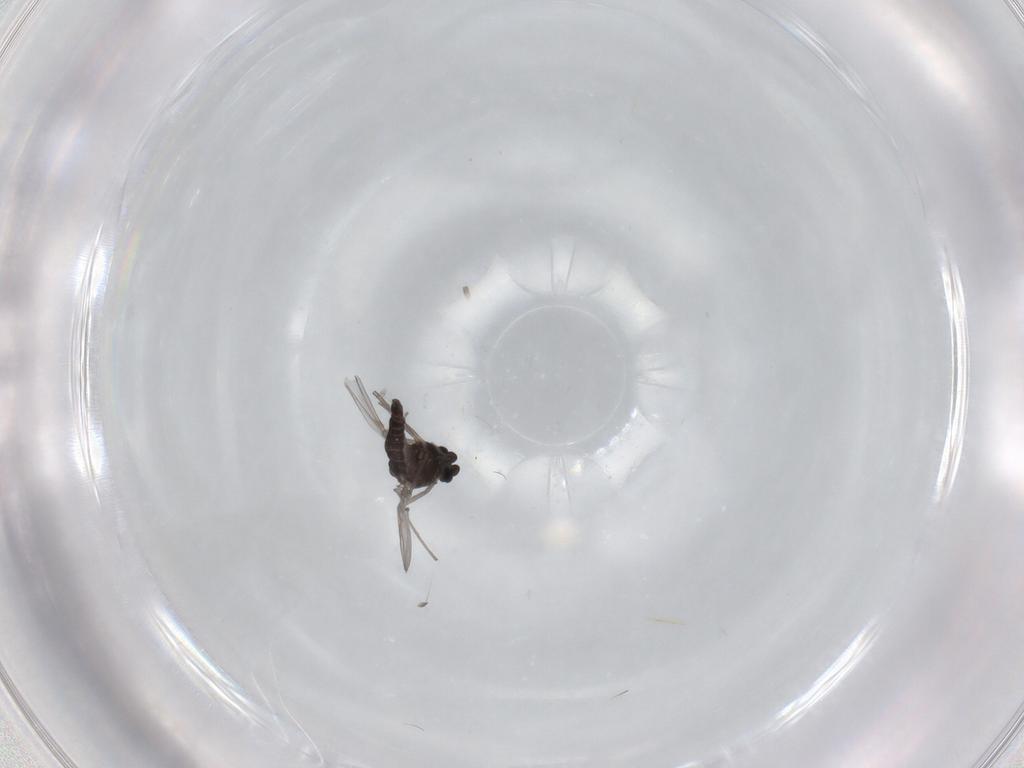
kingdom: Animalia
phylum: Arthropoda
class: Insecta
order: Diptera
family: Chironomidae
